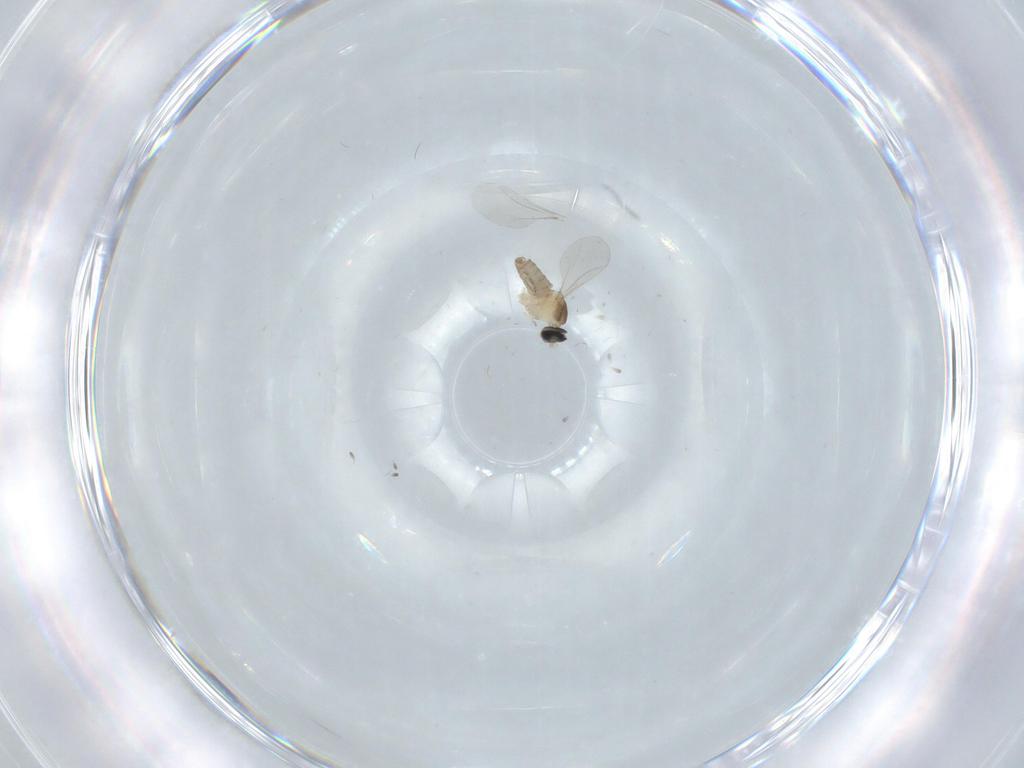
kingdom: Animalia
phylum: Arthropoda
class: Insecta
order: Diptera
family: Cecidomyiidae
